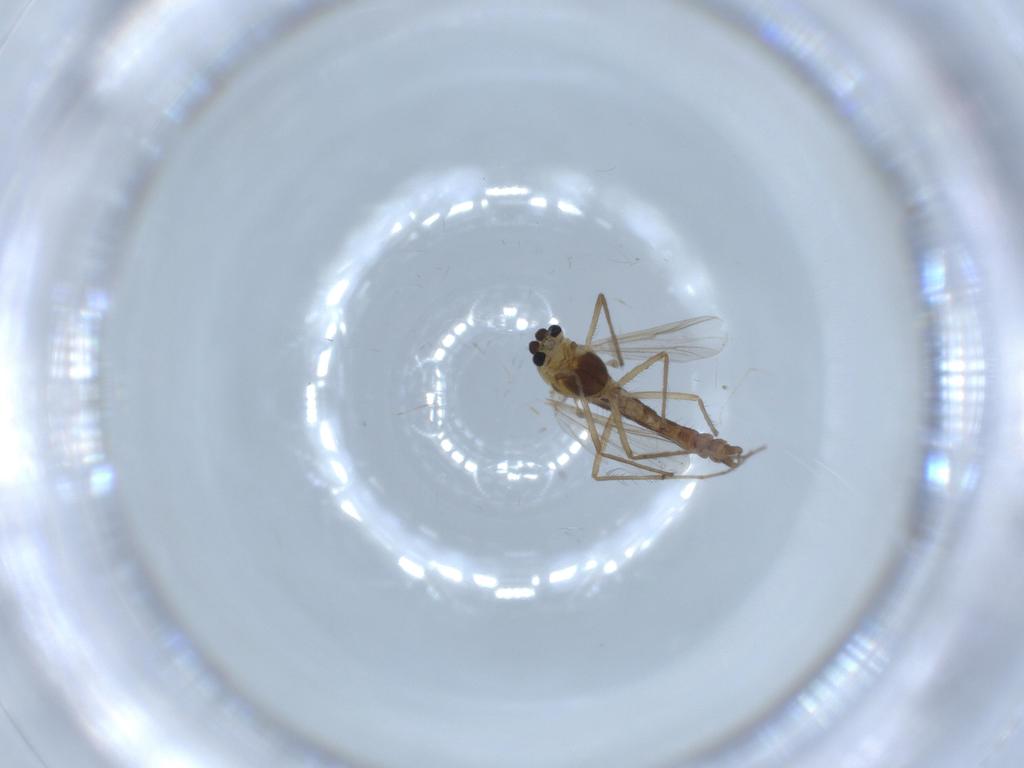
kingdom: Animalia
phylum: Arthropoda
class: Insecta
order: Diptera
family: Chironomidae
